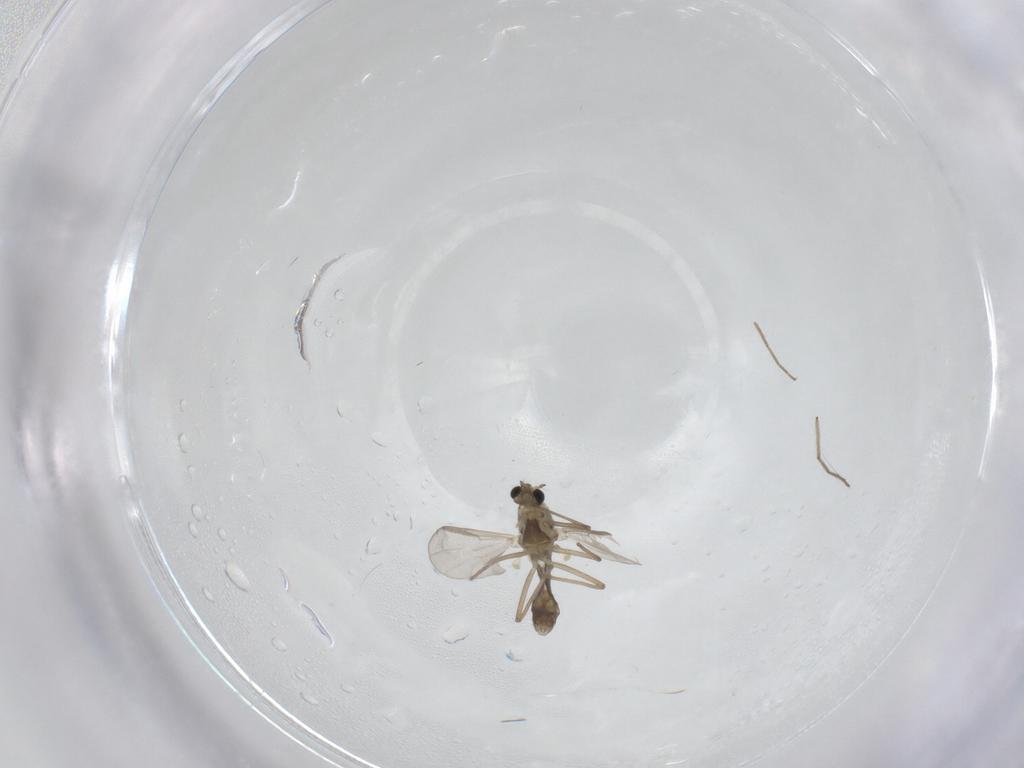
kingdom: Animalia
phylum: Arthropoda
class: Insecta
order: Diptera
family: Chironomidae
